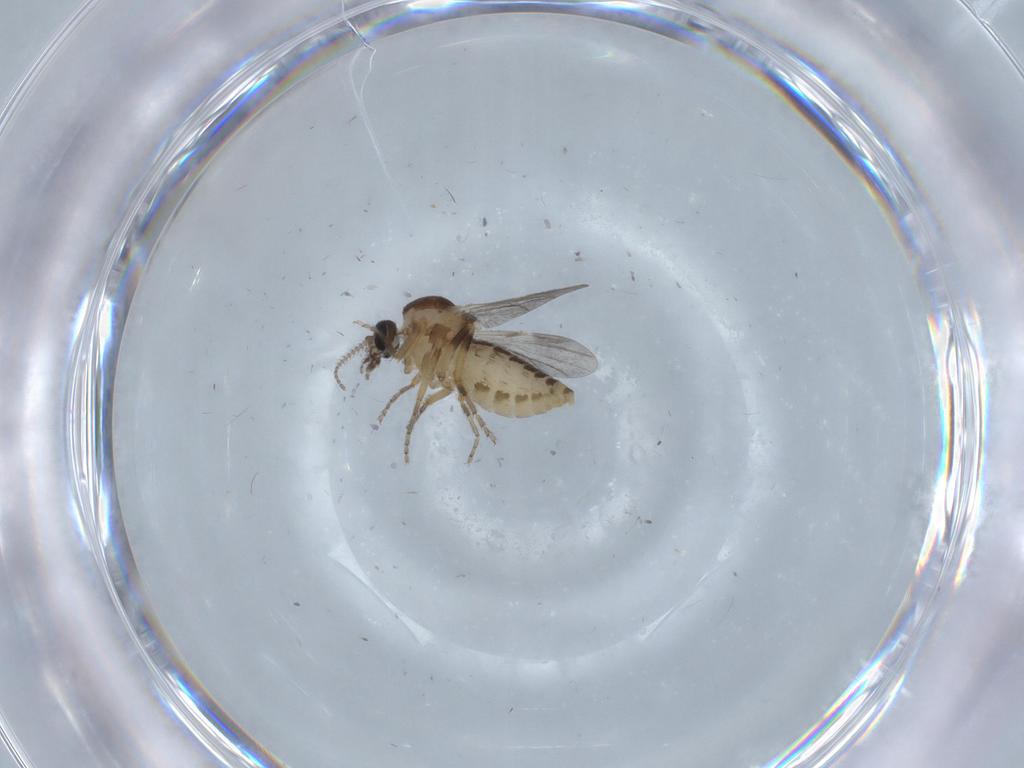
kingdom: Animalia
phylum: Arthropoda
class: Insecta
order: Diptera
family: Ceratopogonidae
